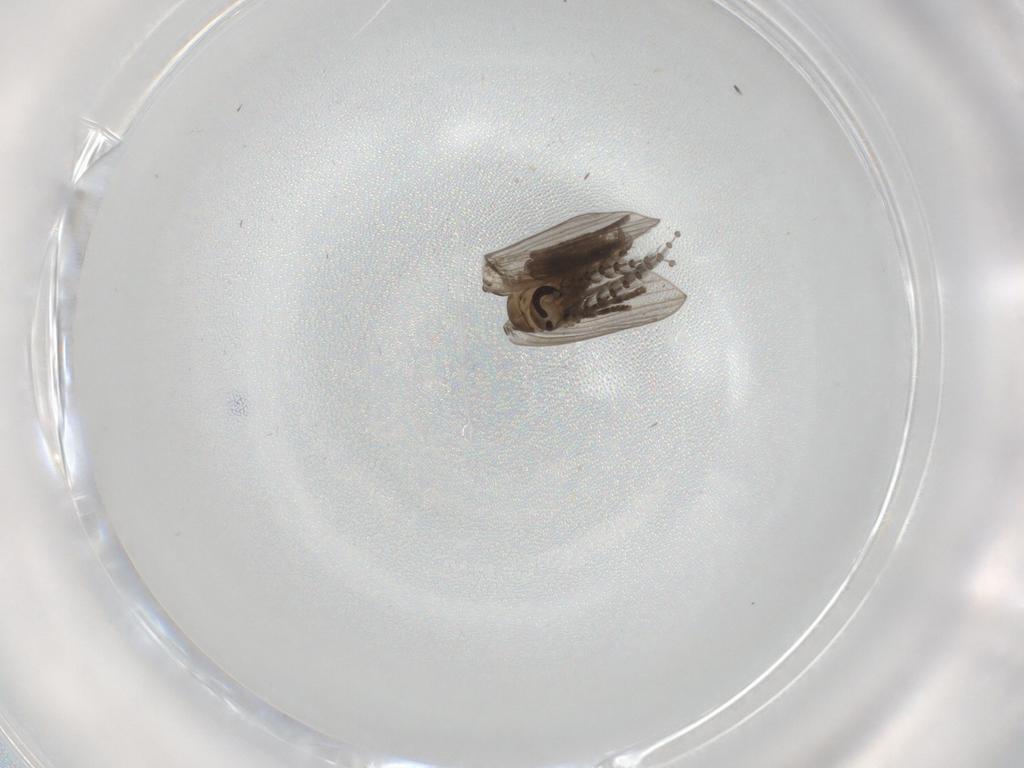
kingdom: Animalia
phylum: Arthropoda
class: Insecta
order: Diptera
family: Psychodidae
